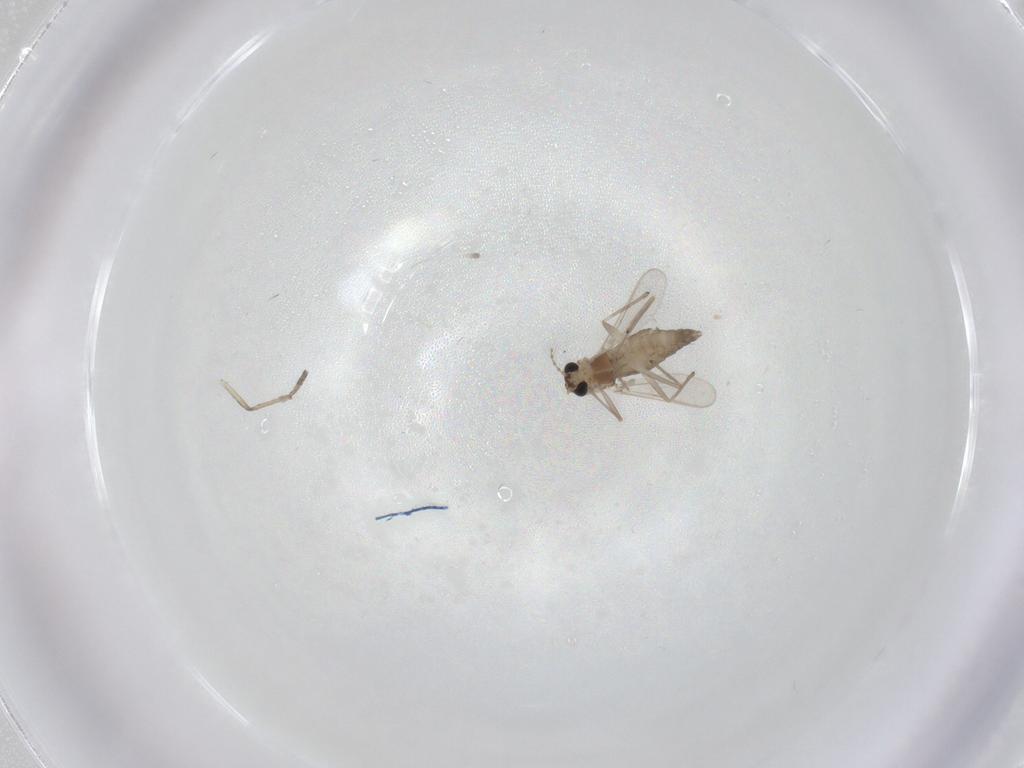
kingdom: Animalia
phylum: Arthropoda
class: Insecta
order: Diptera
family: Chironomidae
